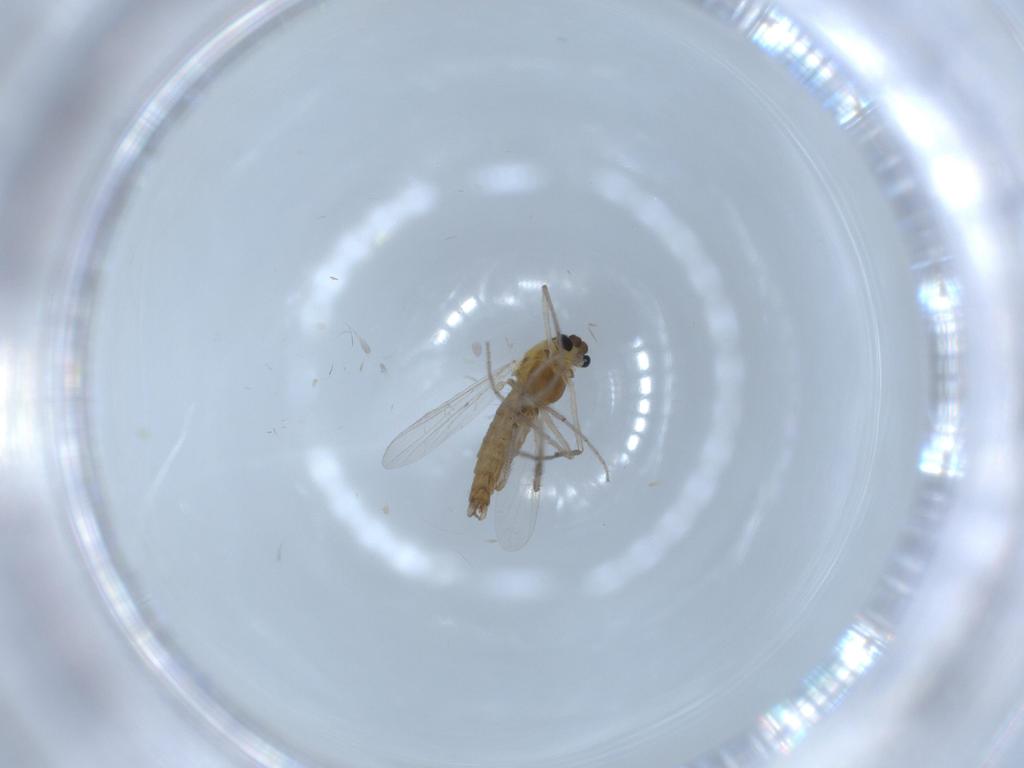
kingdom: Animalia
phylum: Arthropoda
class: Insecta
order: Diptera
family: Chironomidae
